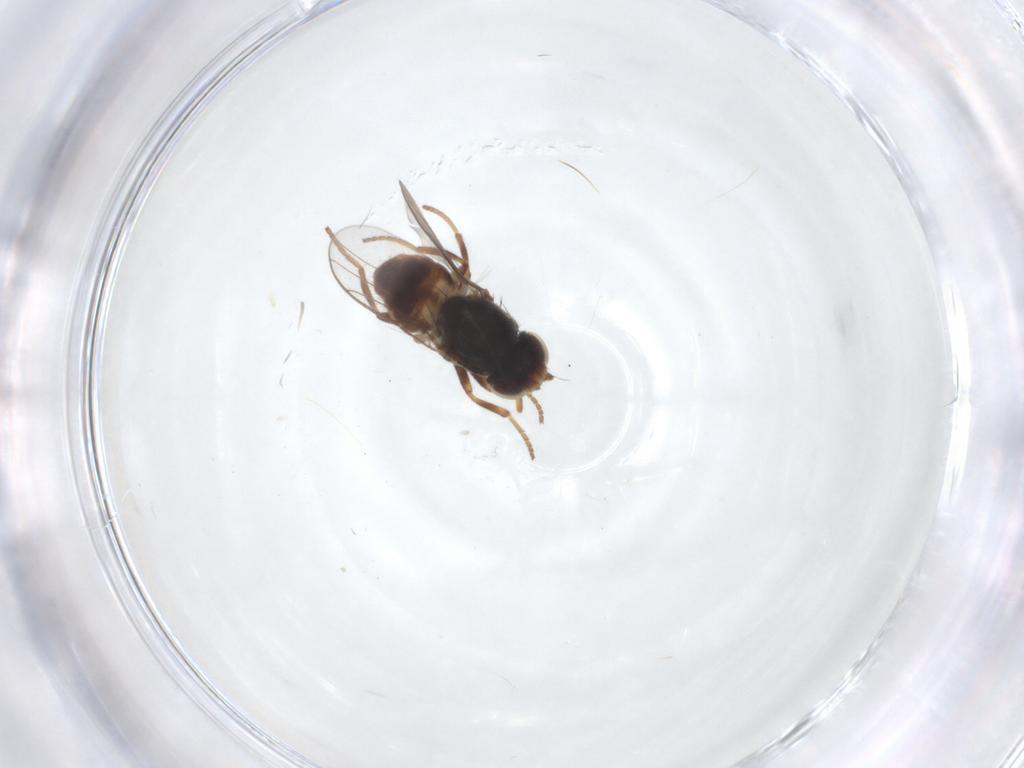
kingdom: Animalia
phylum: Arthropoda
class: Insecta
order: Diptera
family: Chloropidae
